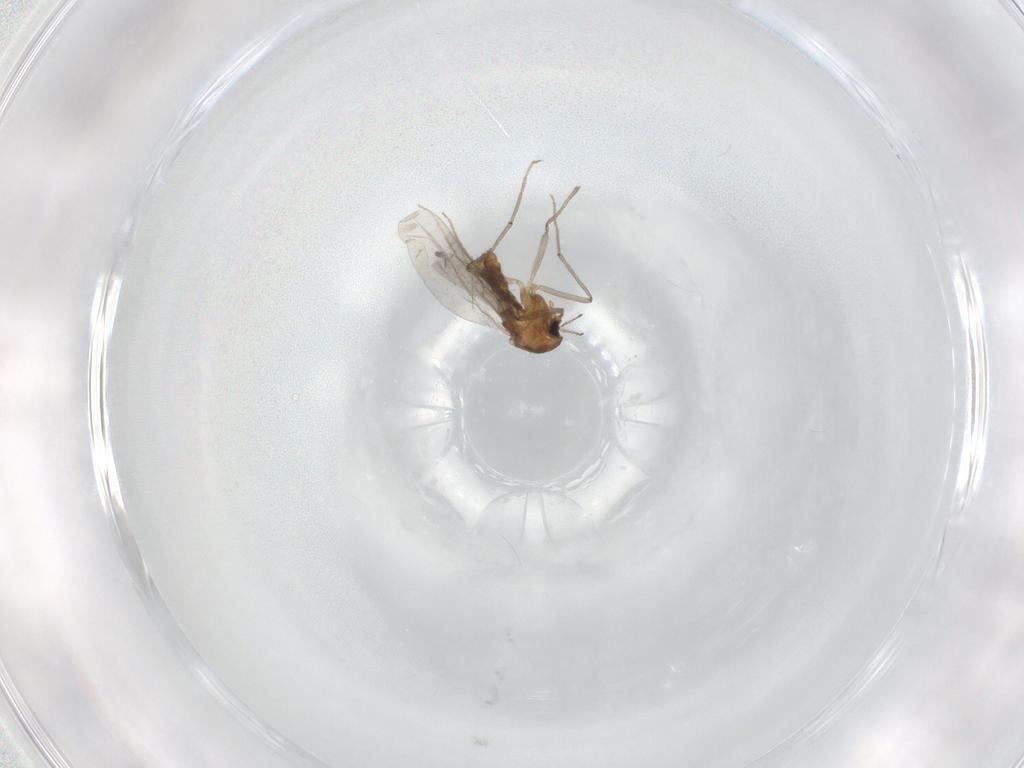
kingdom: Animalia
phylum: Arthropoda
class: Insecta
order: Diptera
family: Chironomidae
